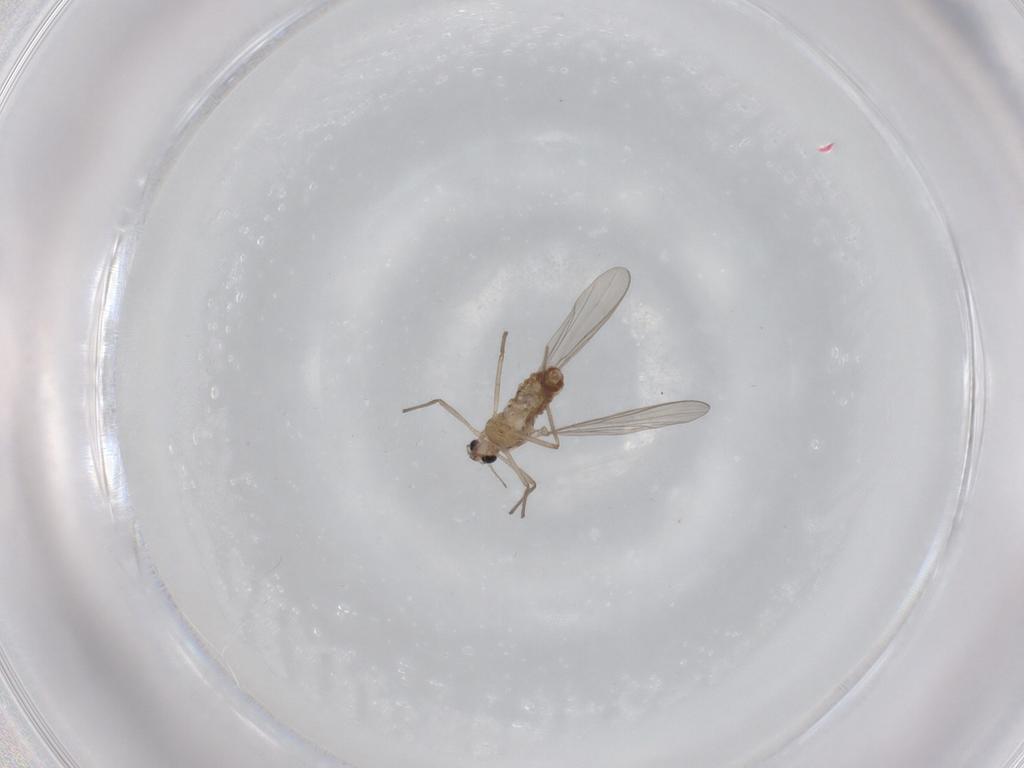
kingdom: Animalia
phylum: Arthropoda
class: Insecta
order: Diptera
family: Chironomidae
